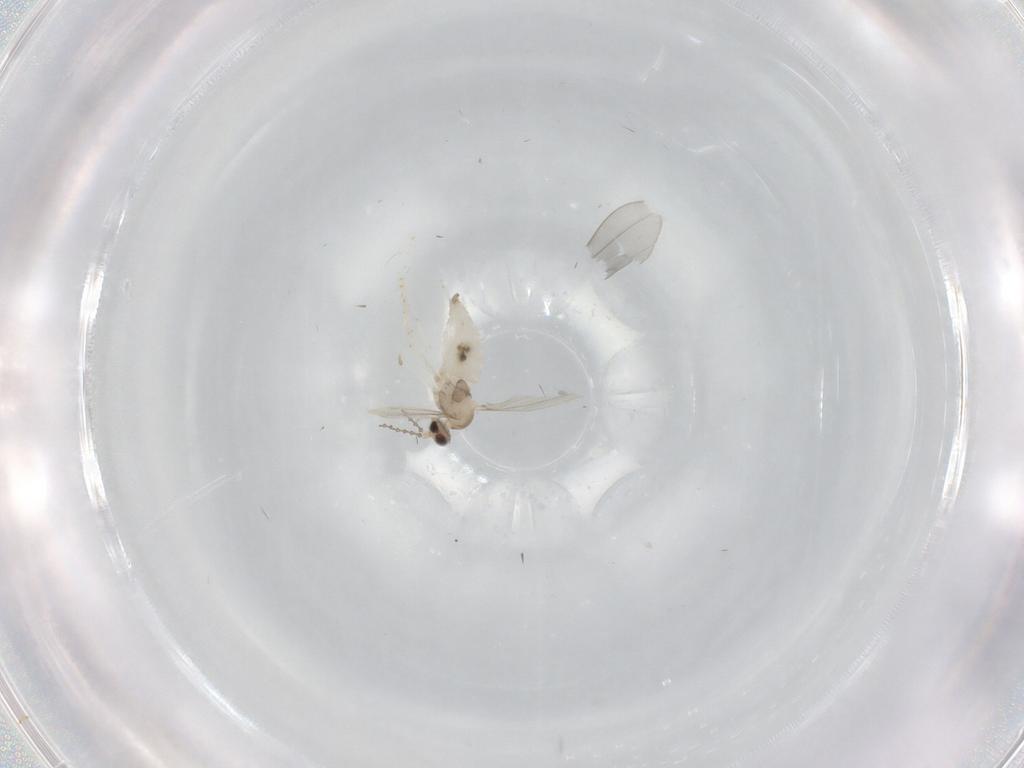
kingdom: Animalia
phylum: Arthropoda
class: Insecta
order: Diptera
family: Cecidomyiidae
